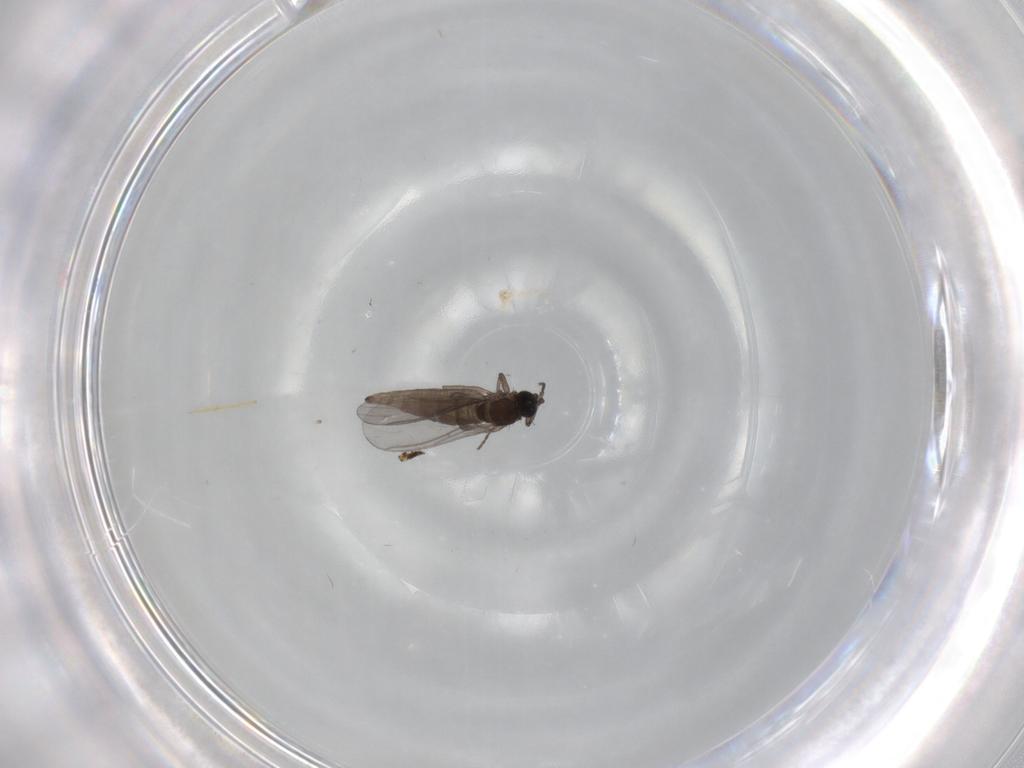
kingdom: Animalia
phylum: Arthropoda
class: Insecta
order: Diptera
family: Sciaridae
